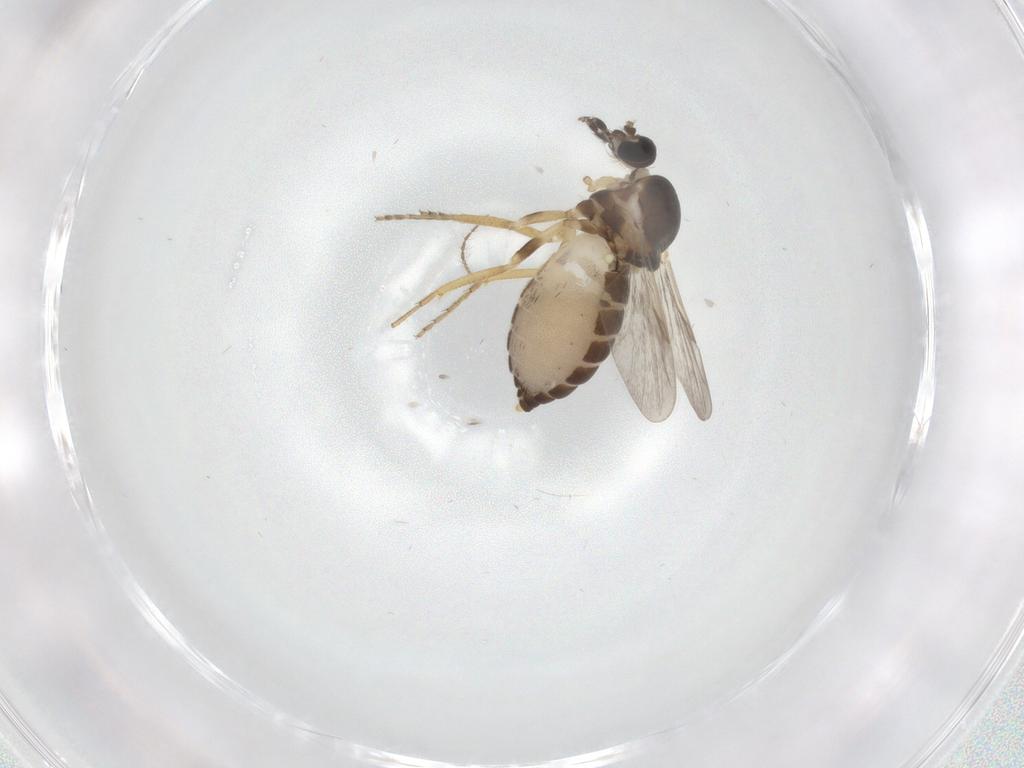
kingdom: Animalia
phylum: Arthropoda
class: Insecta
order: Diptera
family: Ceratopogonidae
